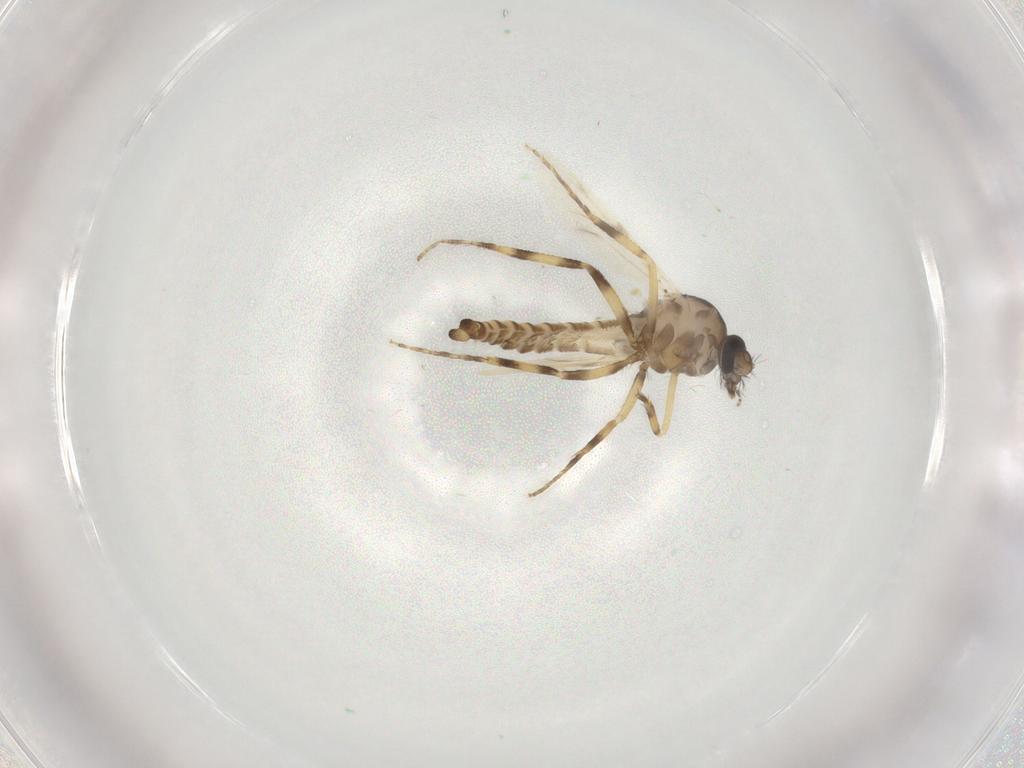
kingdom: Animalia
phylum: Arthropoda
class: Insecta
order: Diptera
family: Ceratopogonidae
